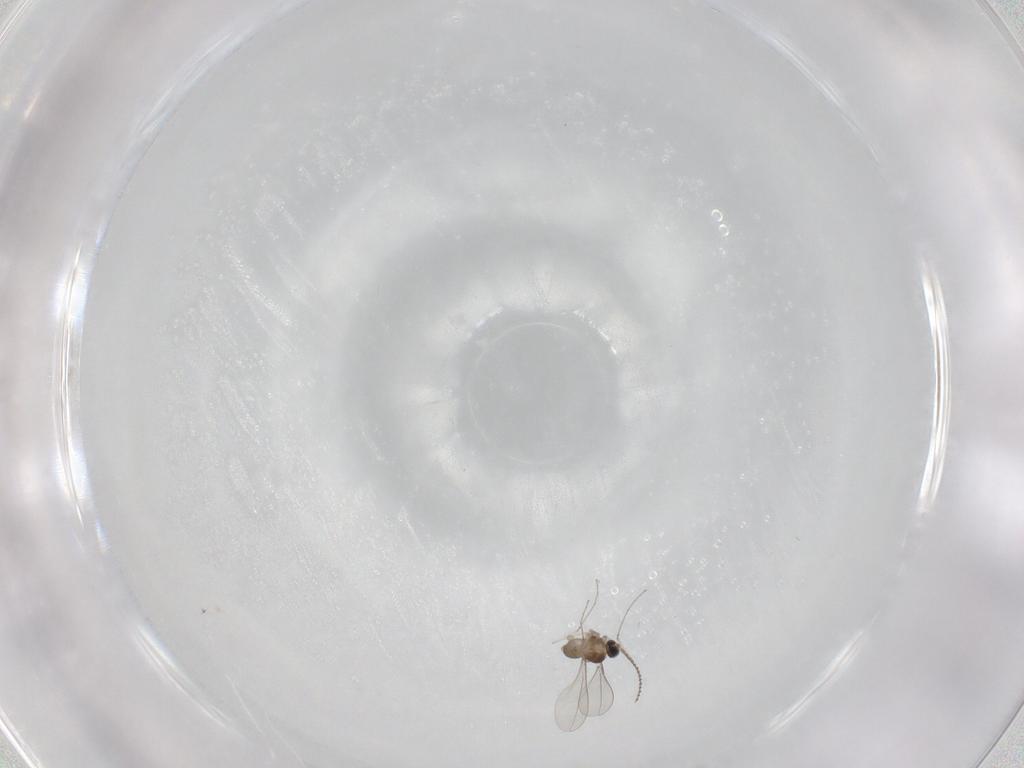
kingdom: Animalia
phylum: Arthropoda
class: Insecta
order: Diptera
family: Cecidomyiidae
